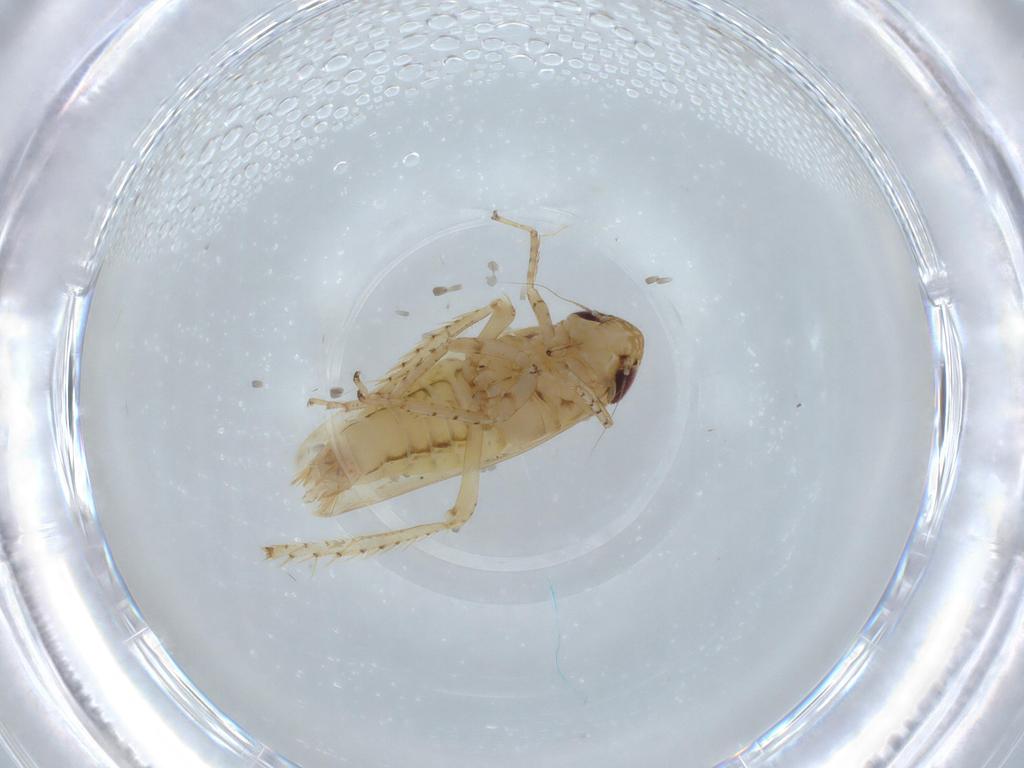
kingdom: Animalia
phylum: Arthropoda
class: Insecta
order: Hemiptera
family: Cicadellidae
